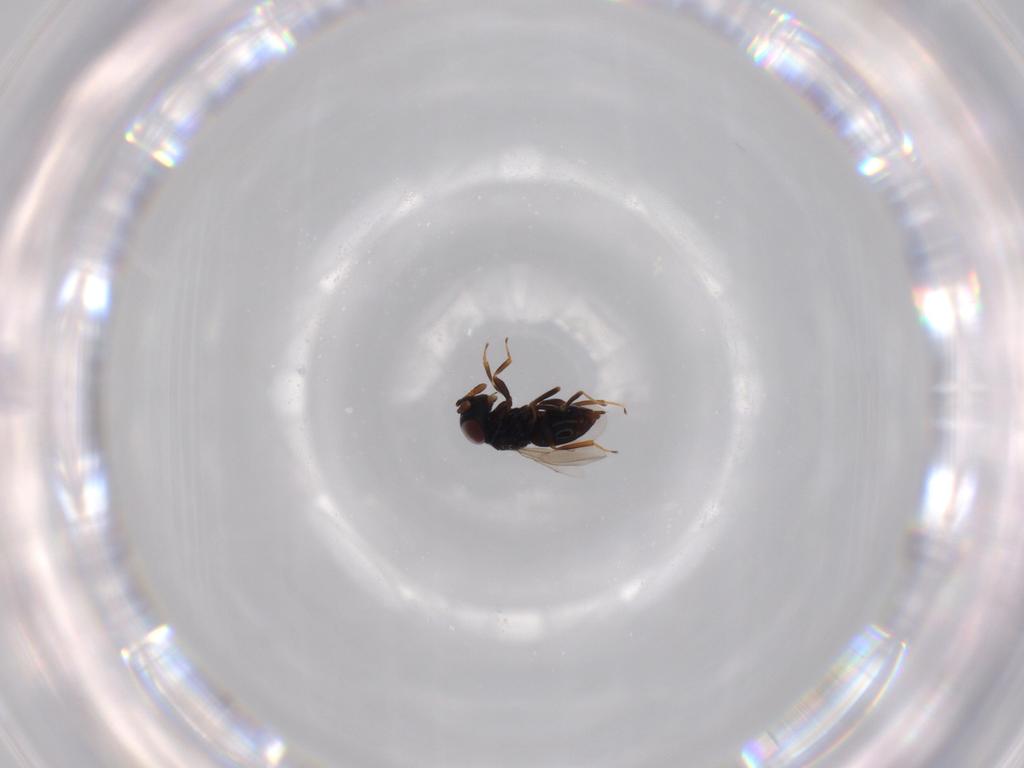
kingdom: Animalia
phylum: Arthropoda
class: Insecta
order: Hymenoptera
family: Eunotidae
